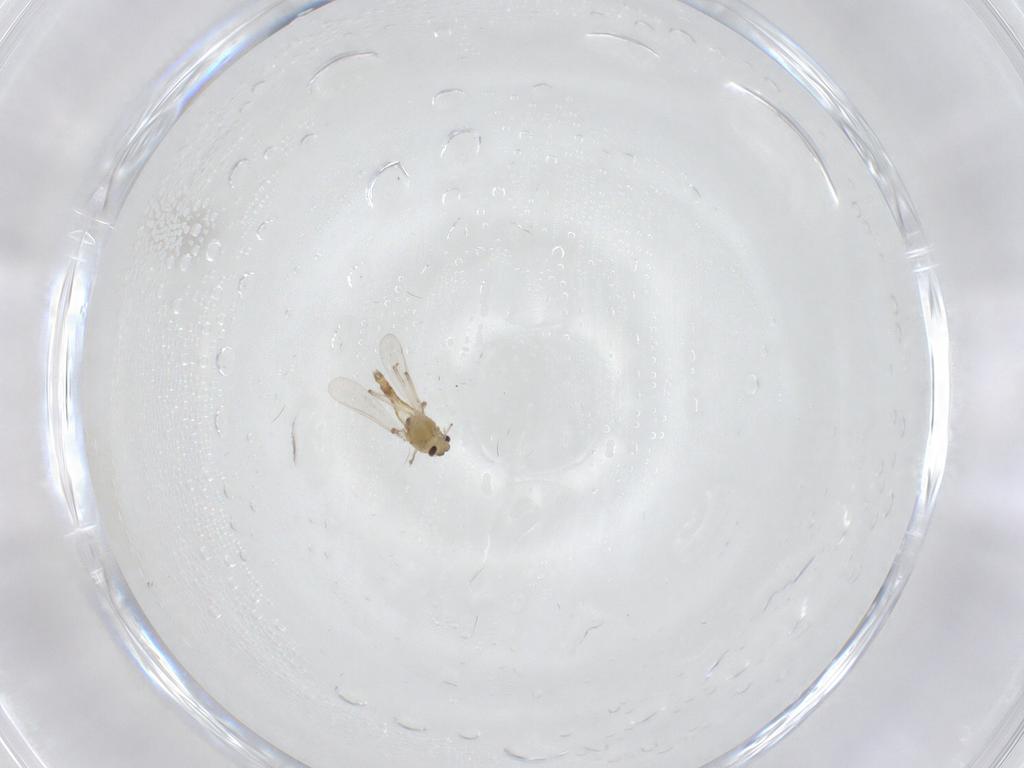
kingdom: Animalia
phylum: Arthropoda
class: Insecta
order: Diptera
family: Chironomidae
